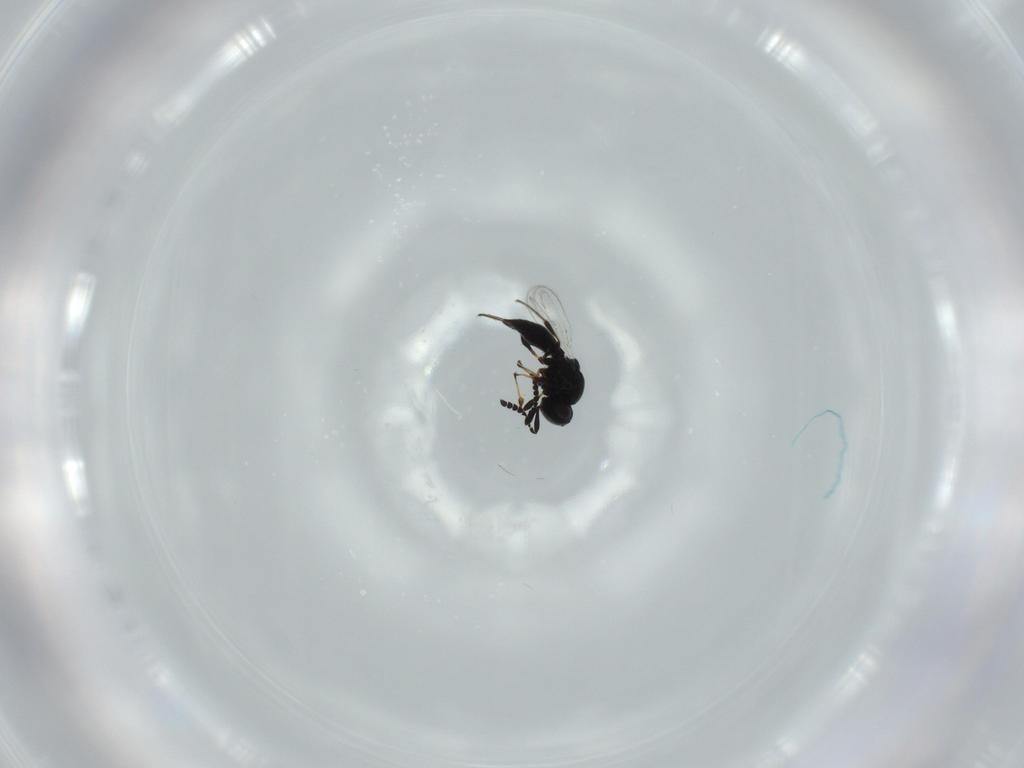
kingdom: Animalia
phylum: Arthropoda
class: Insecta
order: Hymenoptera
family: Platygastridae
